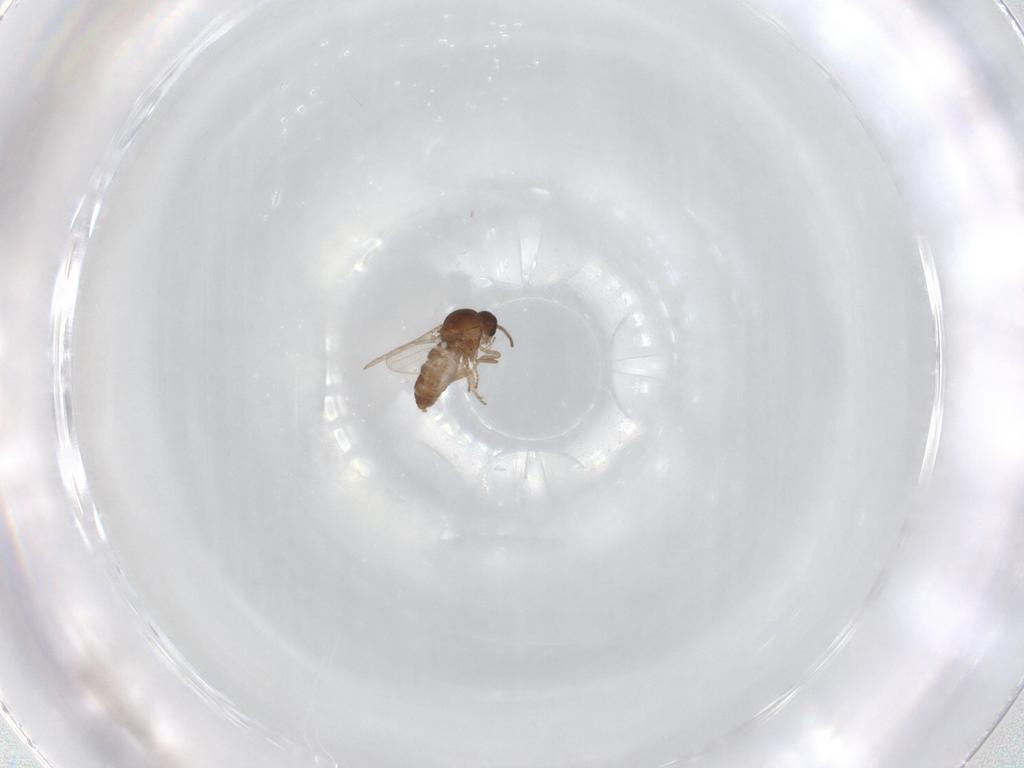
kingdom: Animalia
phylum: Arthropoda
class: Insecta
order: Diptera
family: Ceratopogonidae
